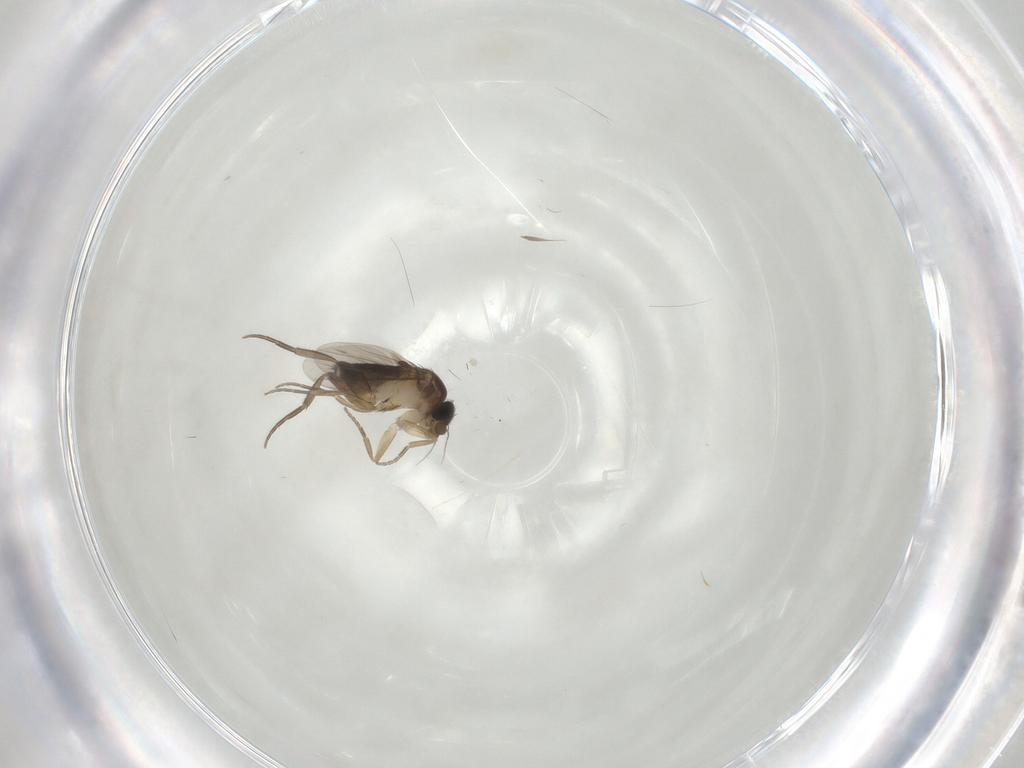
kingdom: Animalia
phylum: Arthropoda
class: Insecta
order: Diptera
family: Phoridae
